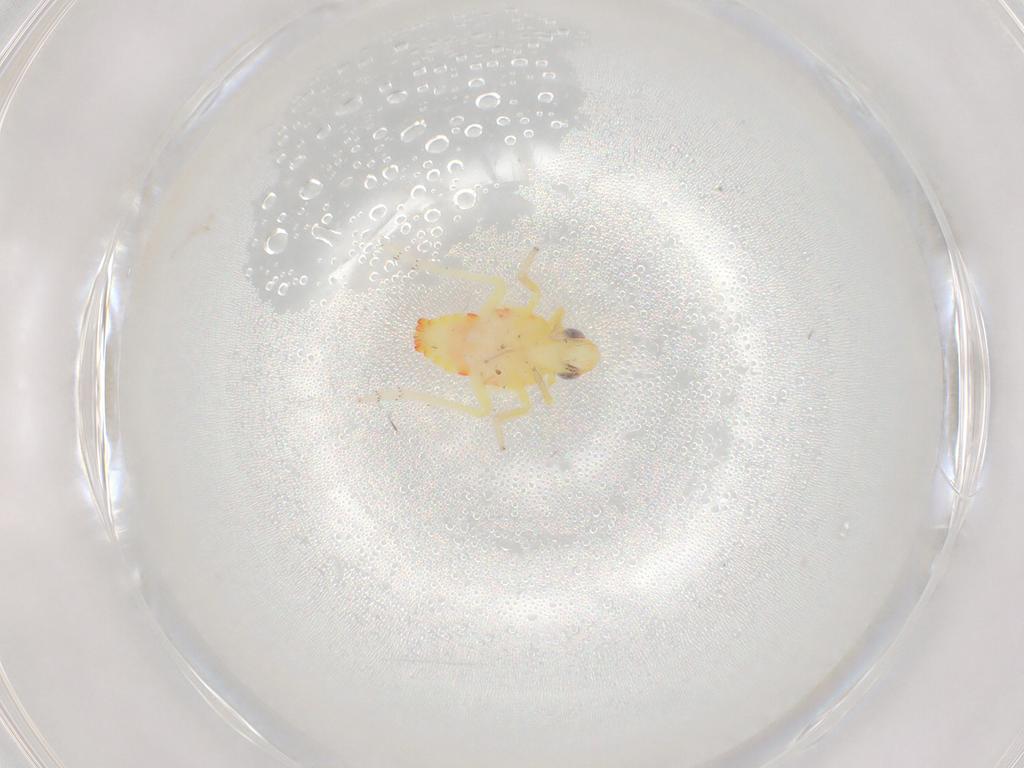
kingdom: Animalia
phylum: Arthropoda
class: Insecta
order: Hemiptera
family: Tropiduchidae
